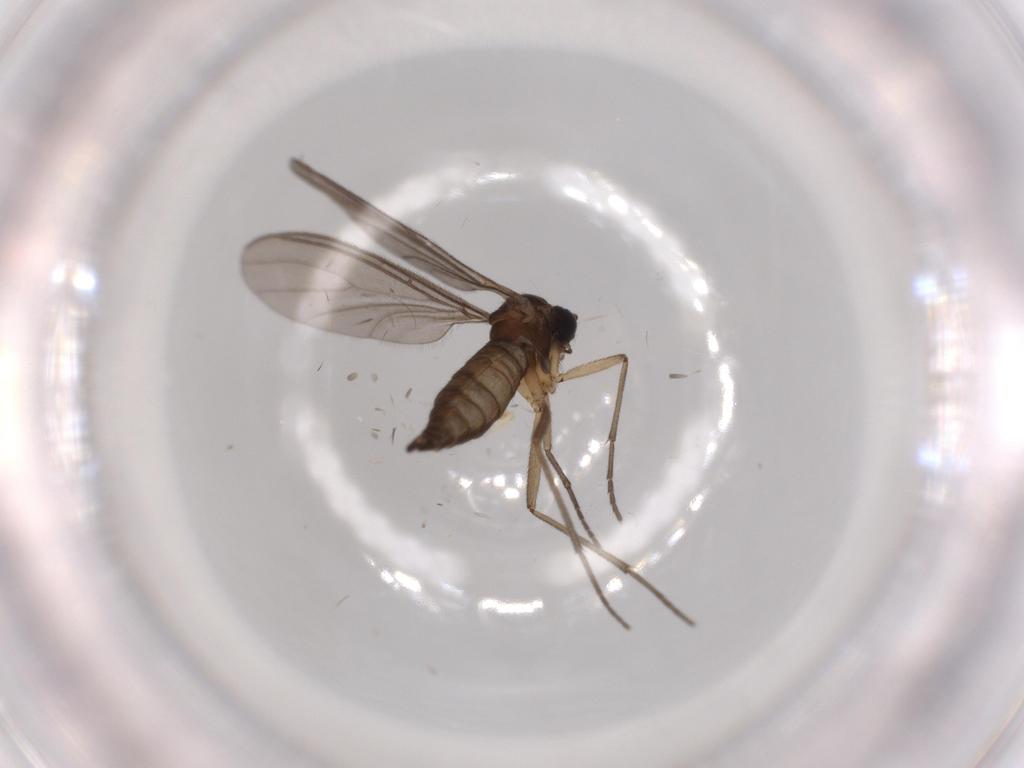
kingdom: Animalia
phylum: Arthropoda
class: Insecta
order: Diptera
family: Sciaridae
